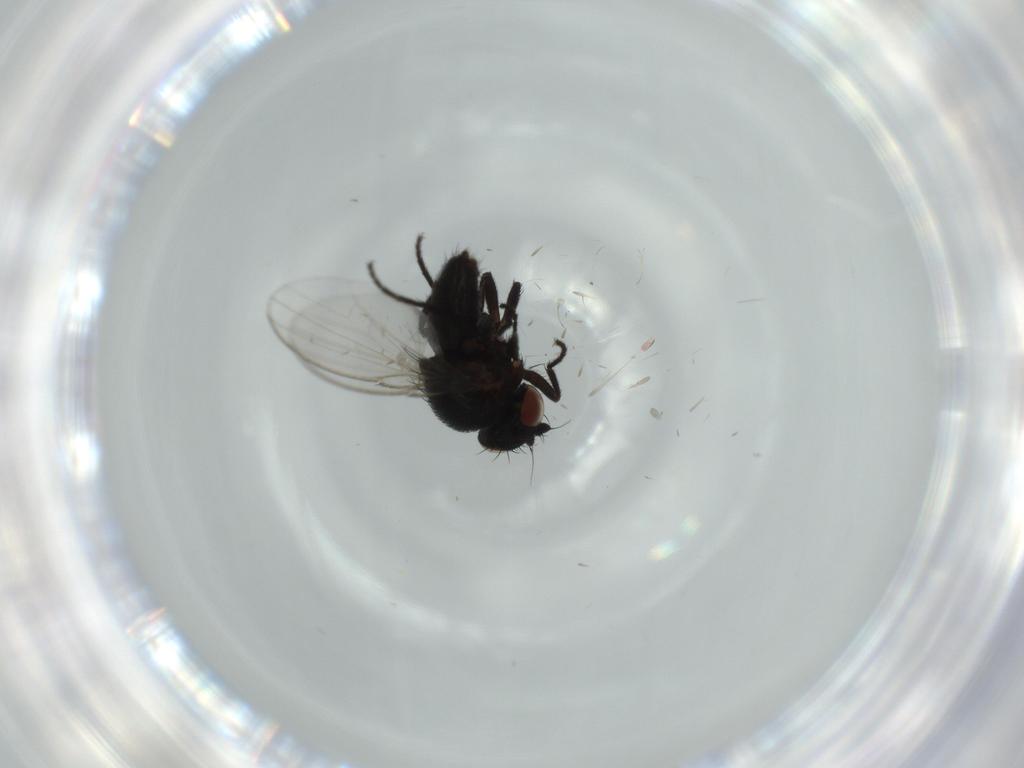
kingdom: Animalia
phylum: Arthropoda
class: Insecta
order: Diptera
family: Milichiidae
